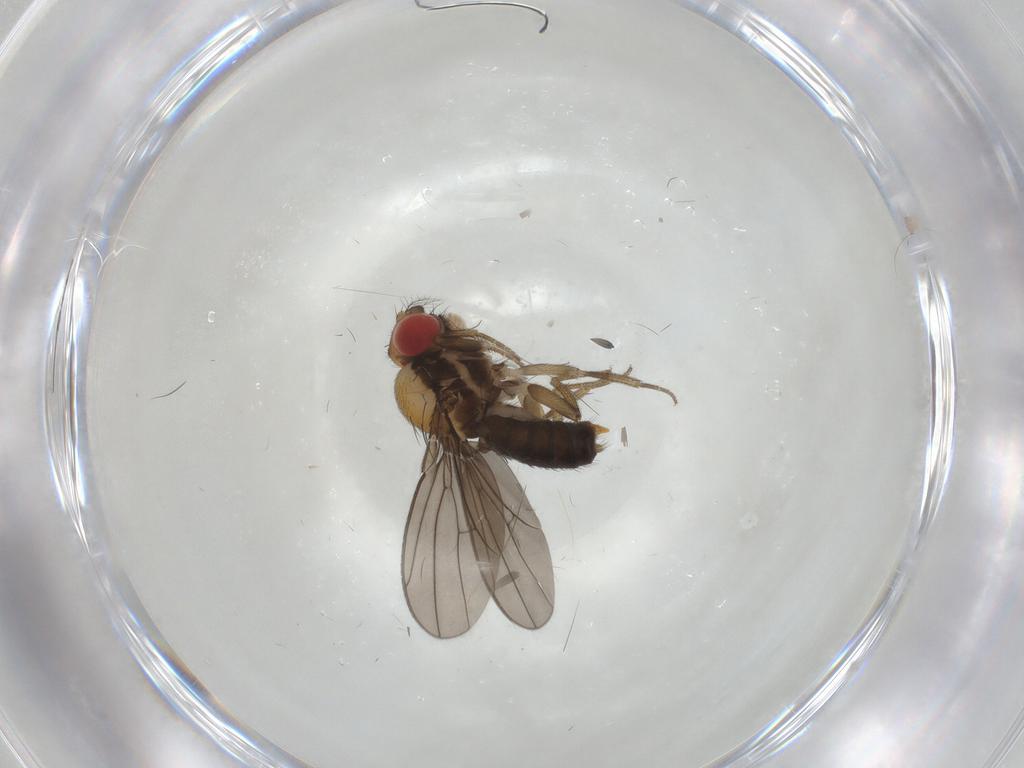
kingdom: Animalia
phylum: Arthropoda
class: Insecta
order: Diptera
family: Drosophilidae
